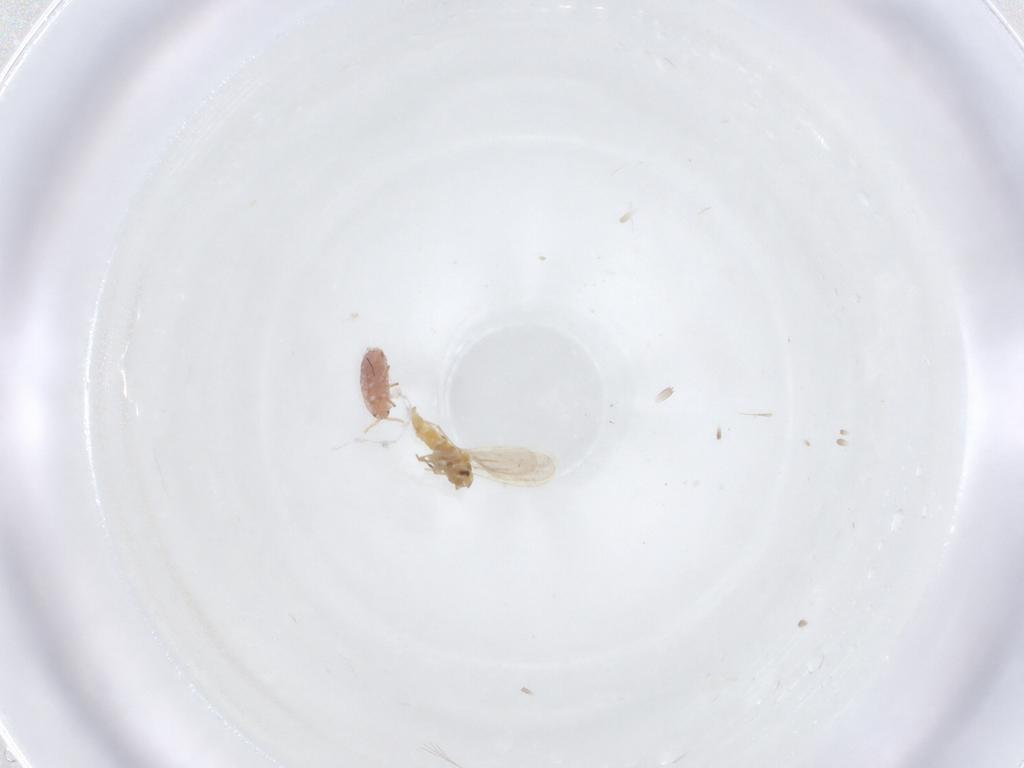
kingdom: Animalia
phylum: Arthropoda
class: Insecta
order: Hemiptera
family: Aleyrodidae
